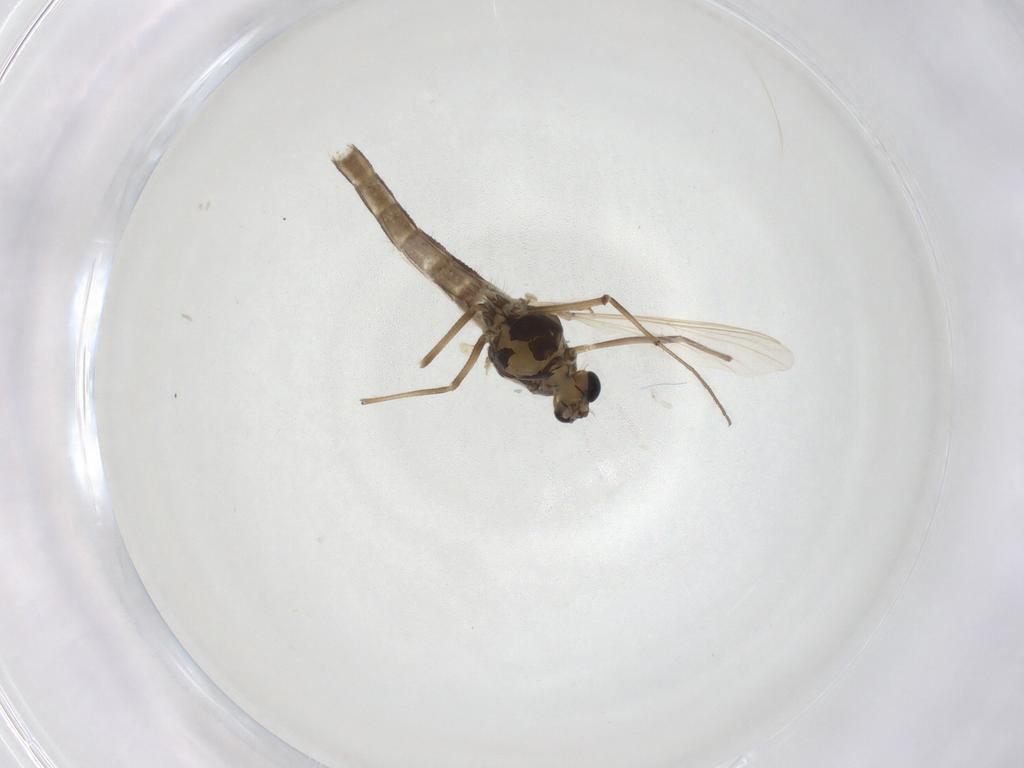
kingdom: Animalia
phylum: Arthropoda
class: Insecta
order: Diptera
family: Chironomidae
